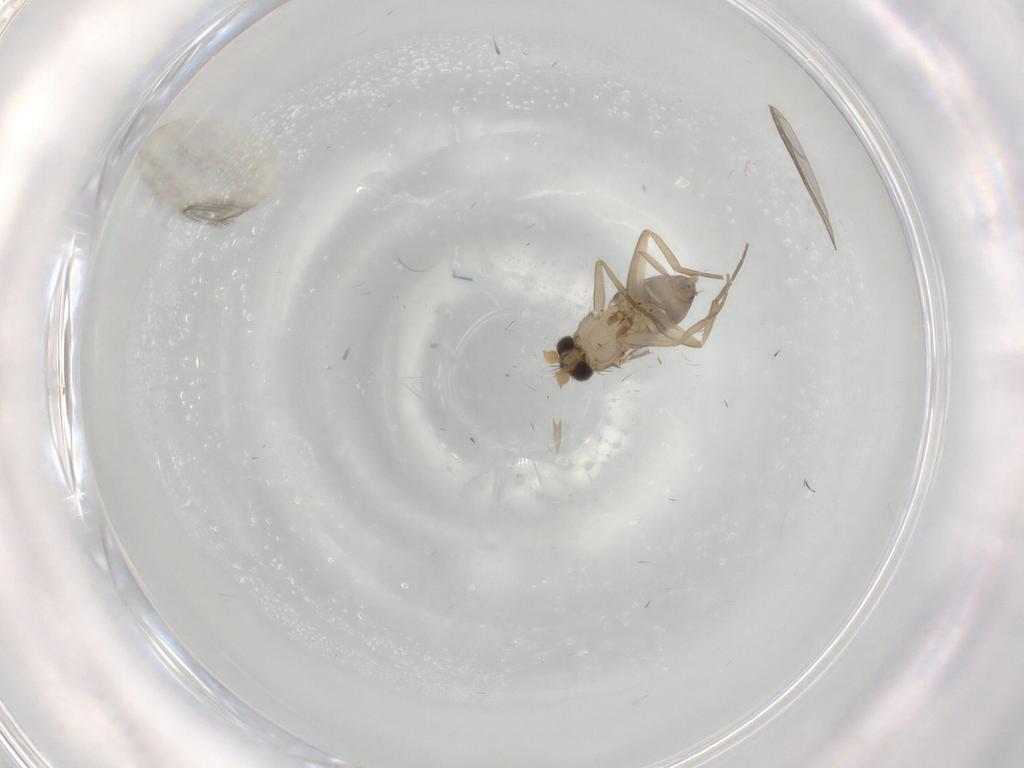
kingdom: Animalia
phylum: Arthropoda
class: Insecta
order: Diptera
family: Phoridae
